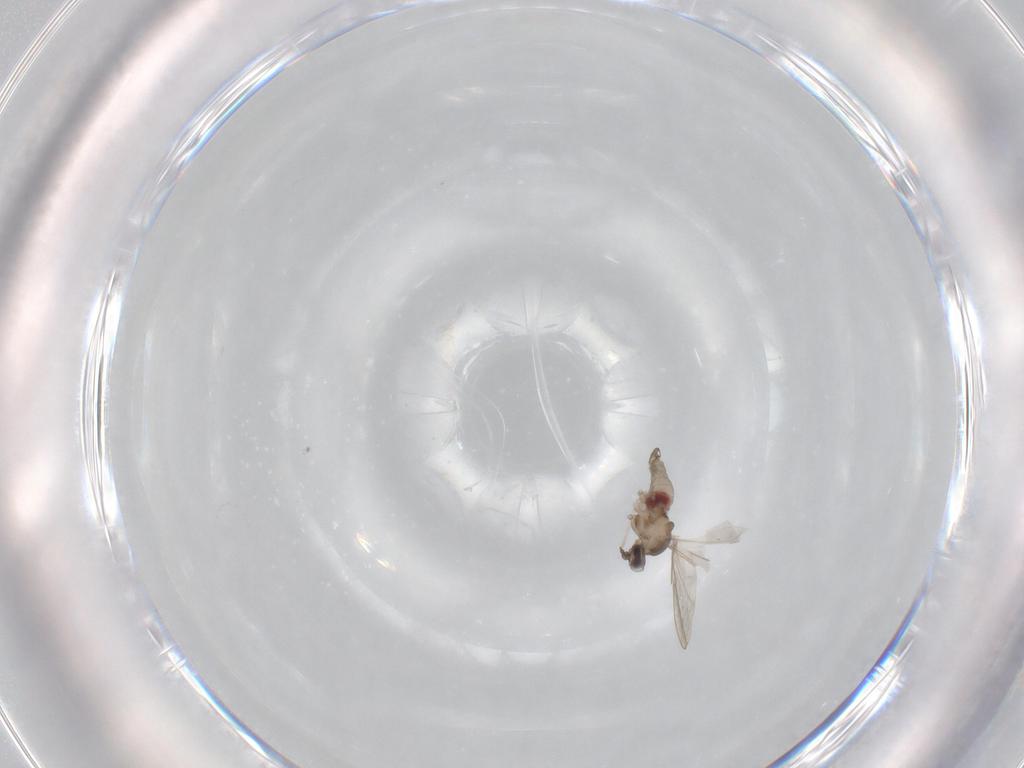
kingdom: Animalia
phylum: Arthropoda
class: Insecta
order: Diptera
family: Cecidomyiidae
